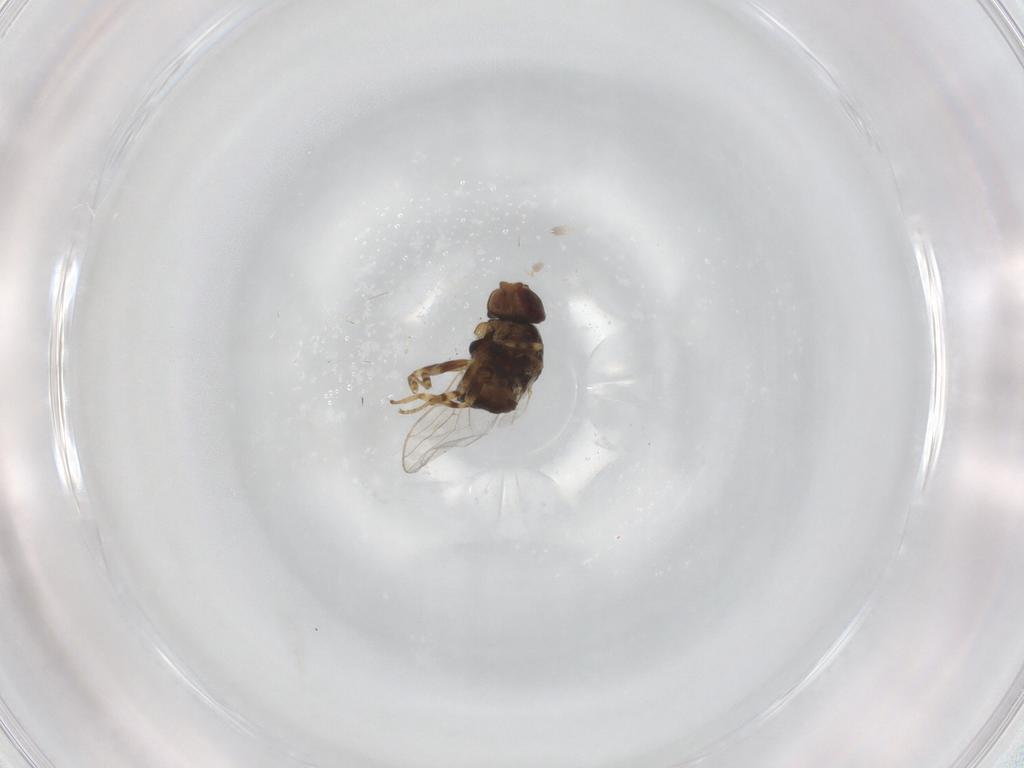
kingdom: Animalia
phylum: Arthropoda
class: Insecta
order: Diptera
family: Chloropidae
